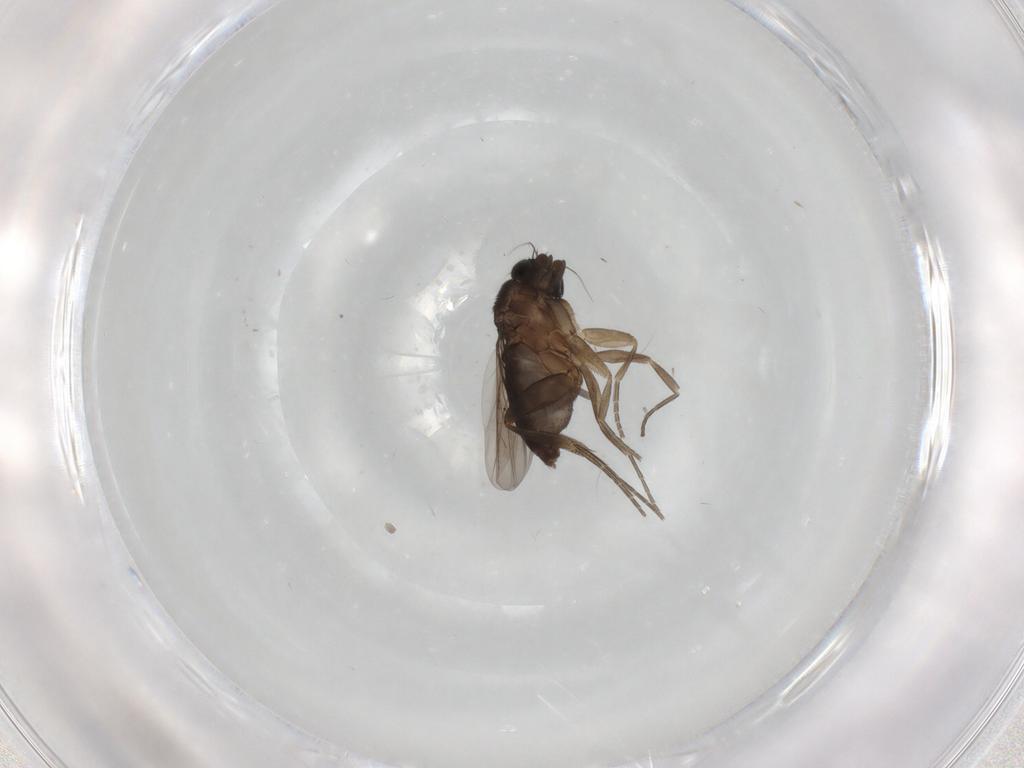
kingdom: Animalia
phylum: Arthropoda
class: Insecta
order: Diptera
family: Phoridae
